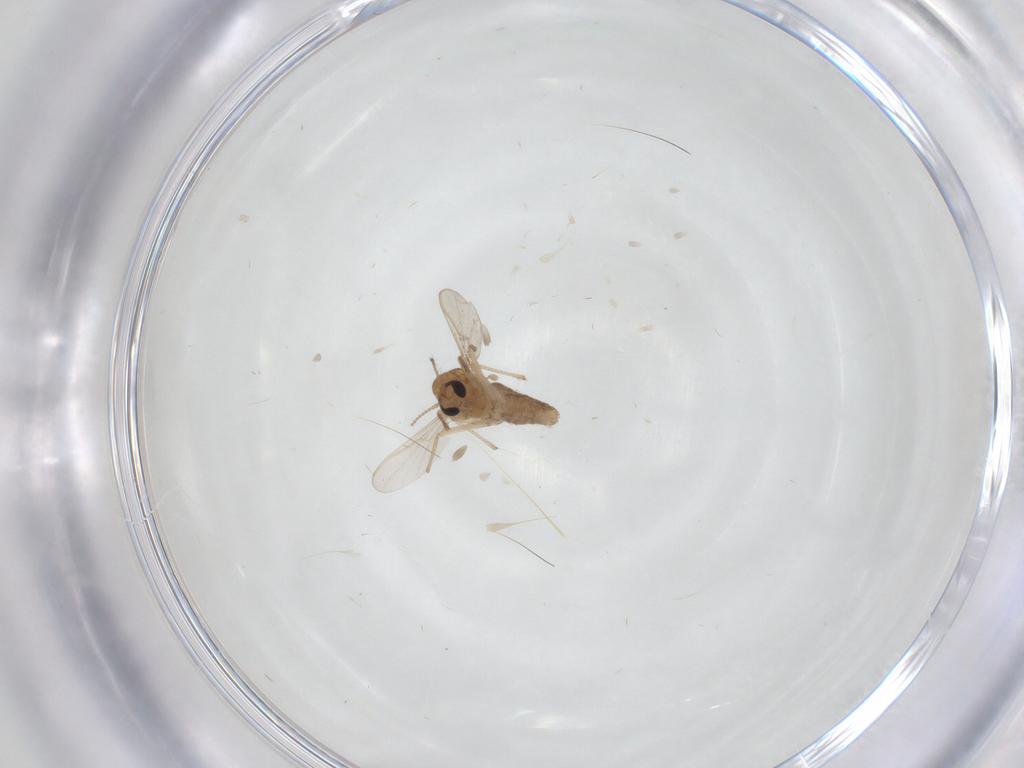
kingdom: Animalia
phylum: Arthropoda
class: Insecta
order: Diptera
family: Chironomidae
